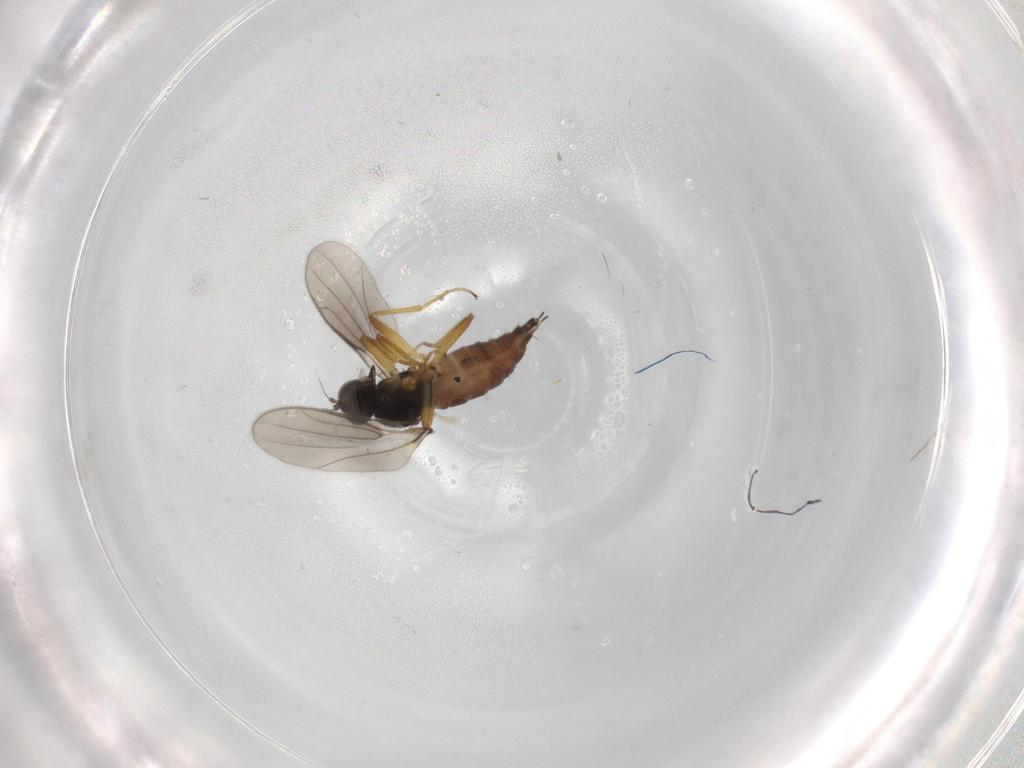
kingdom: Animalia
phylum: Arthropoda
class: Insecta
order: Diptera
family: Hybotidae
